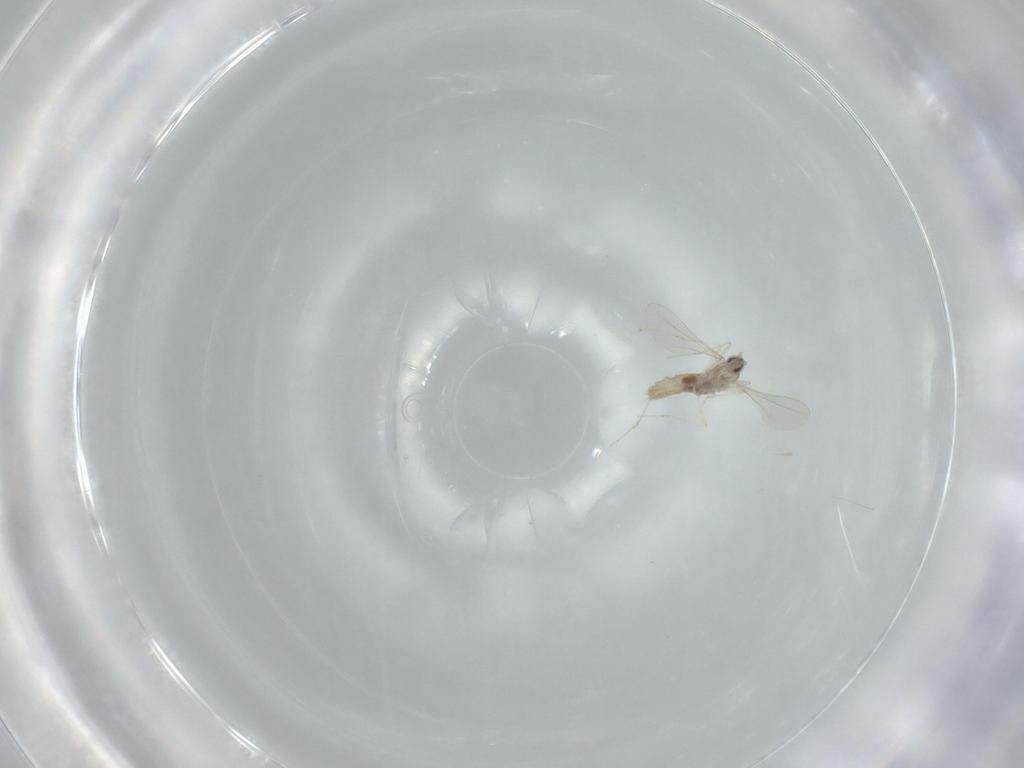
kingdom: Animalia
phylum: Arthropoda
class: Insecta
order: Diptera
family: Cecidomyiidae
